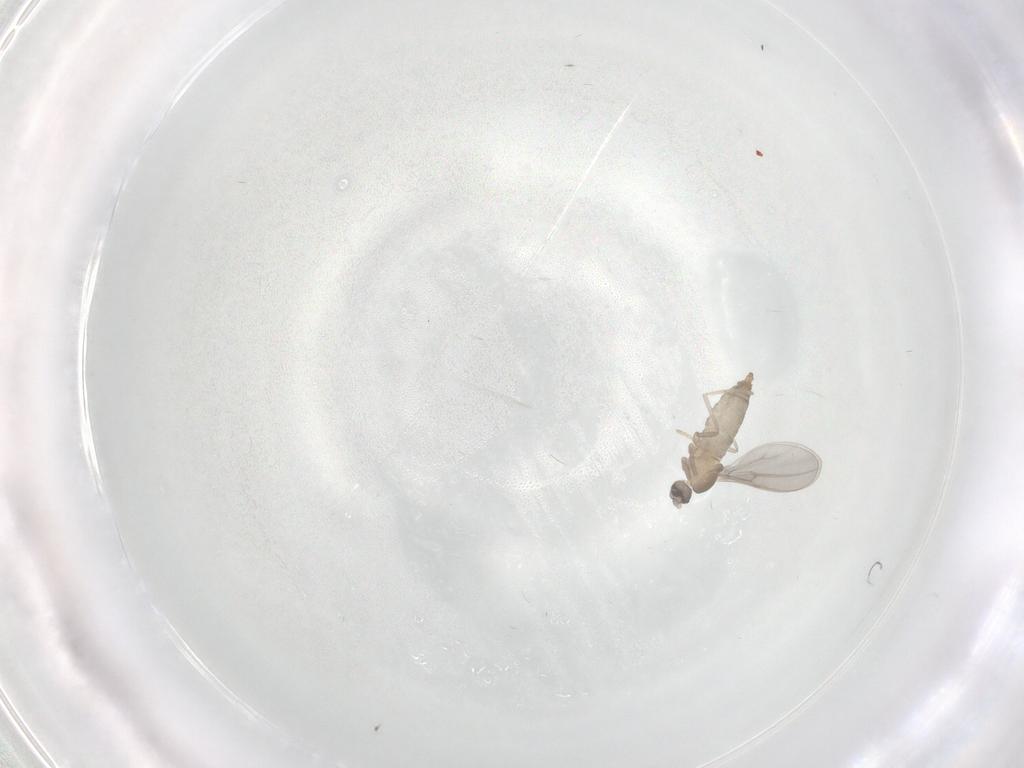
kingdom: Animalia
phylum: Arthropoda
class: Insecta
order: Diptera
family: Cecidomyiidae
